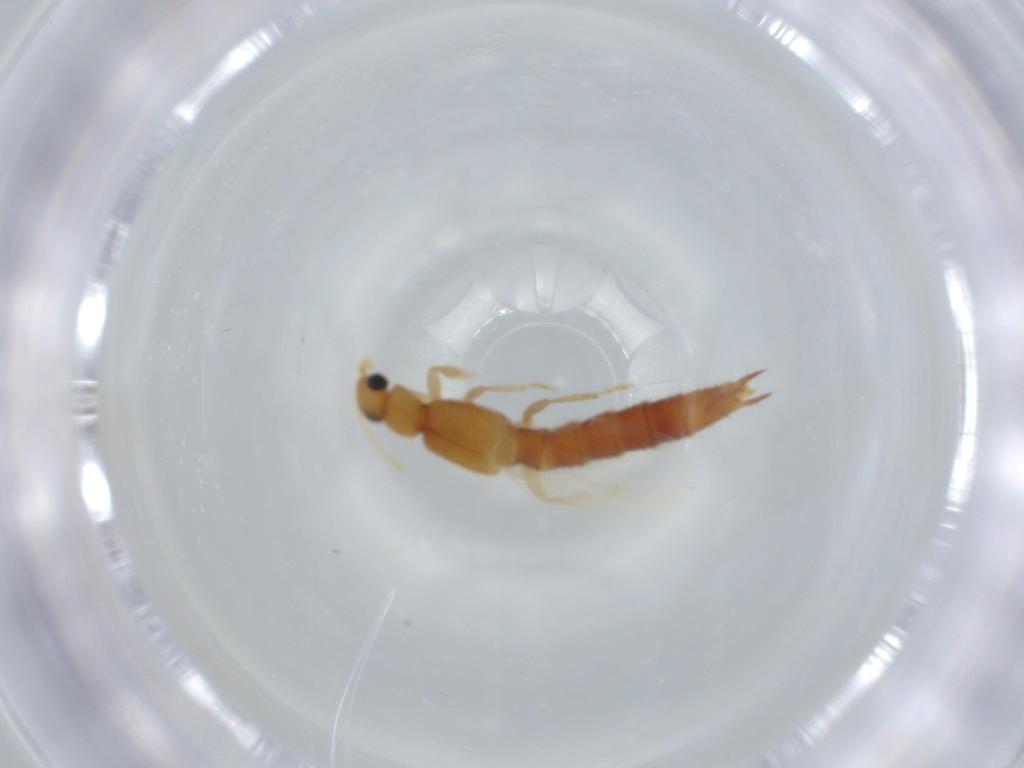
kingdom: Animalia
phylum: Arthropoda
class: Insecta
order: Coleoptera
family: Staphylinidae
